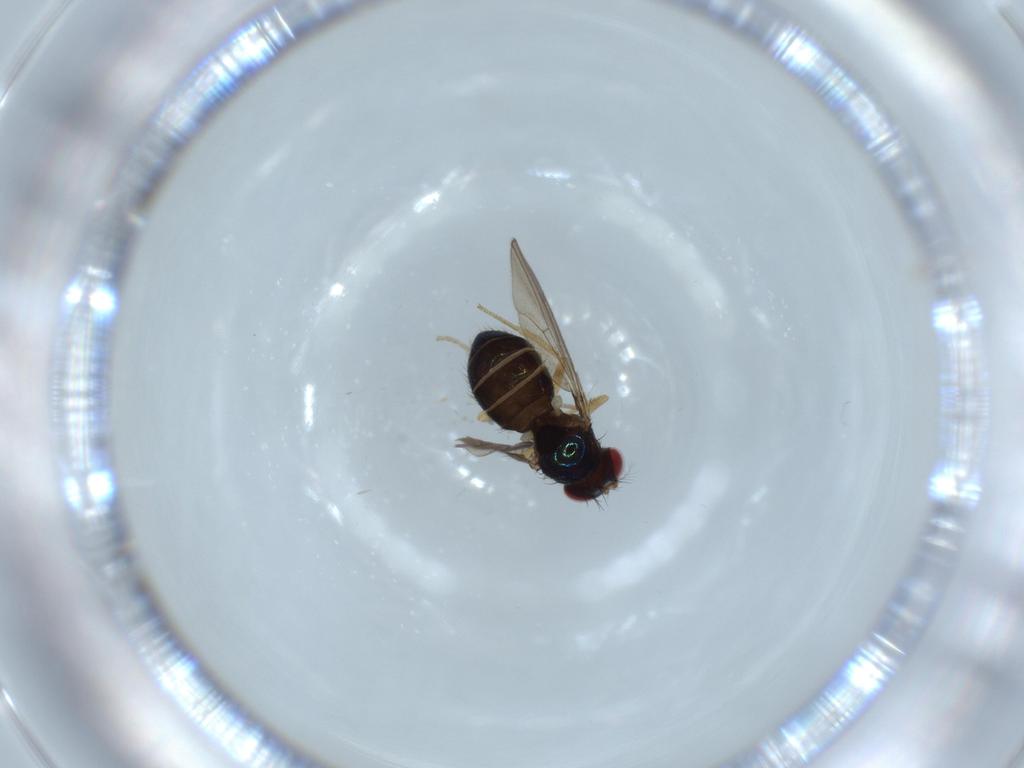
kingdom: Animalia
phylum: Arthropoda
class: Insecta
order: Diptera
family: Drosophilidae
